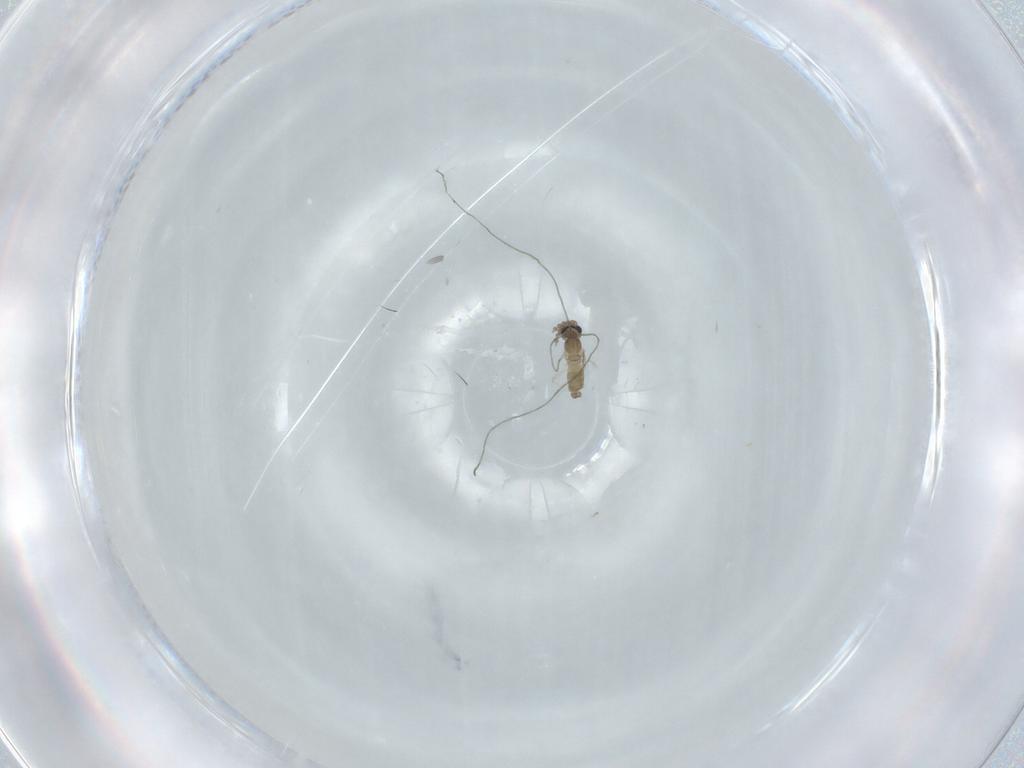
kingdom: Animalia
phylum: Arthropoda
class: Insecta
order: Diptera
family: Cecidomyiidae
